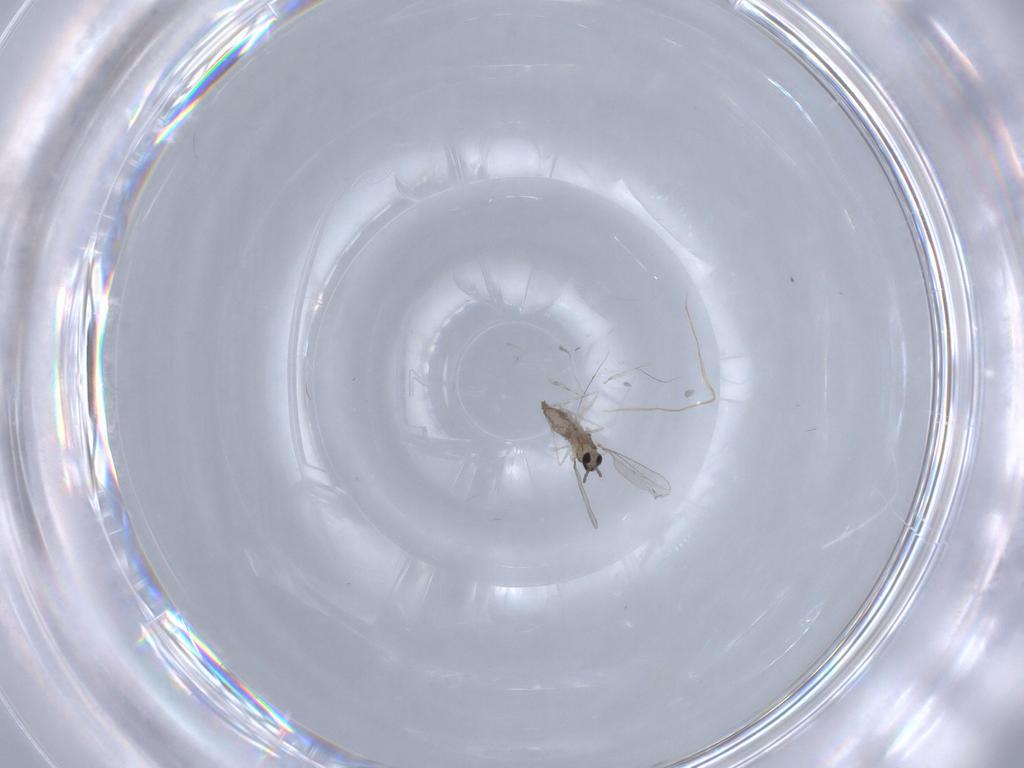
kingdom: Animalia
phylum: Arthropoda
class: Insecta
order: Diptera
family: Cecidomyiidae
